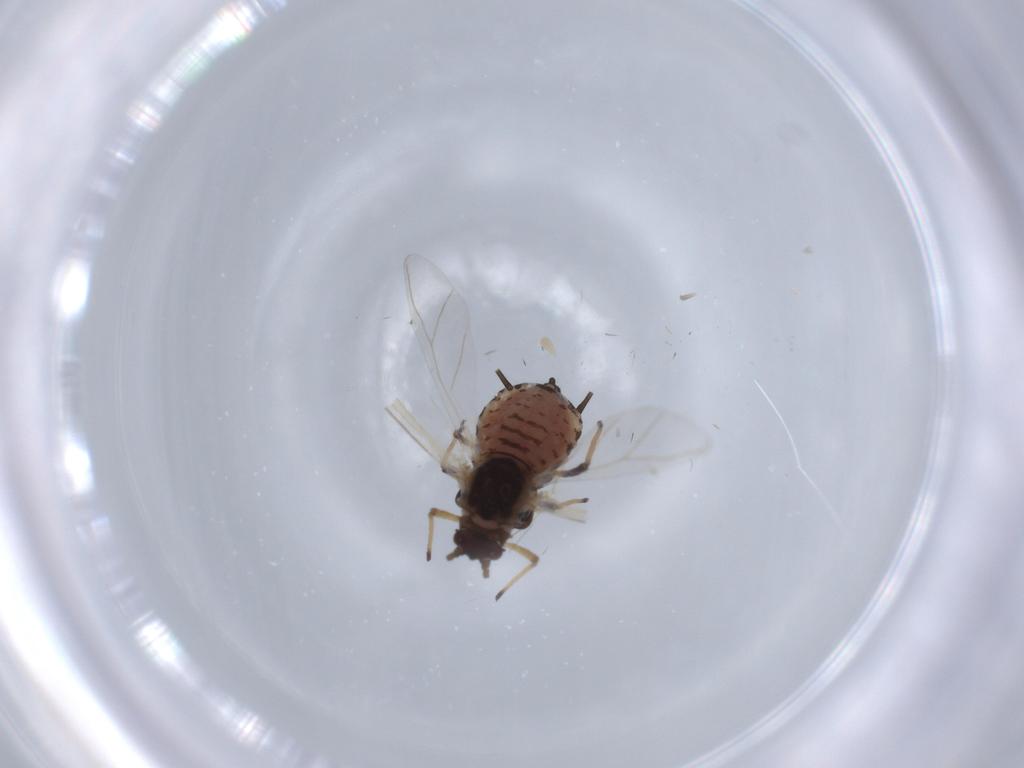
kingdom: Animalia
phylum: Arthropoda
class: Insecta
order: Hemiptera
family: Aphididae
